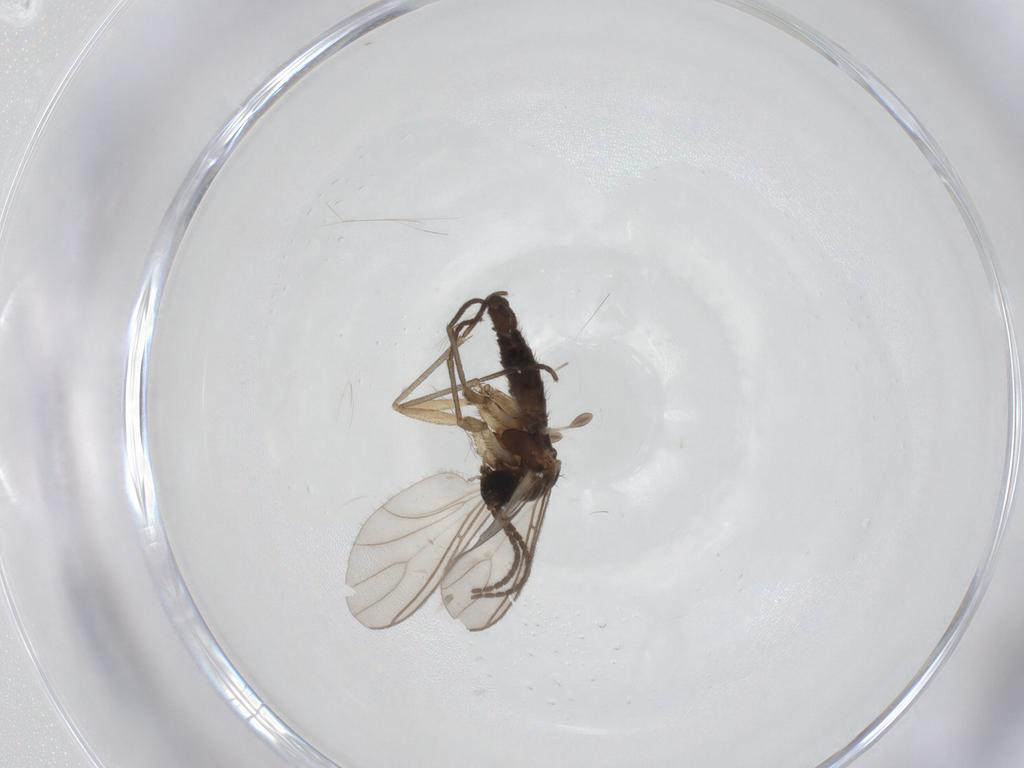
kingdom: Animalia
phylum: Arthropoda
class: Insecta
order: Diptera
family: Sciaridae
